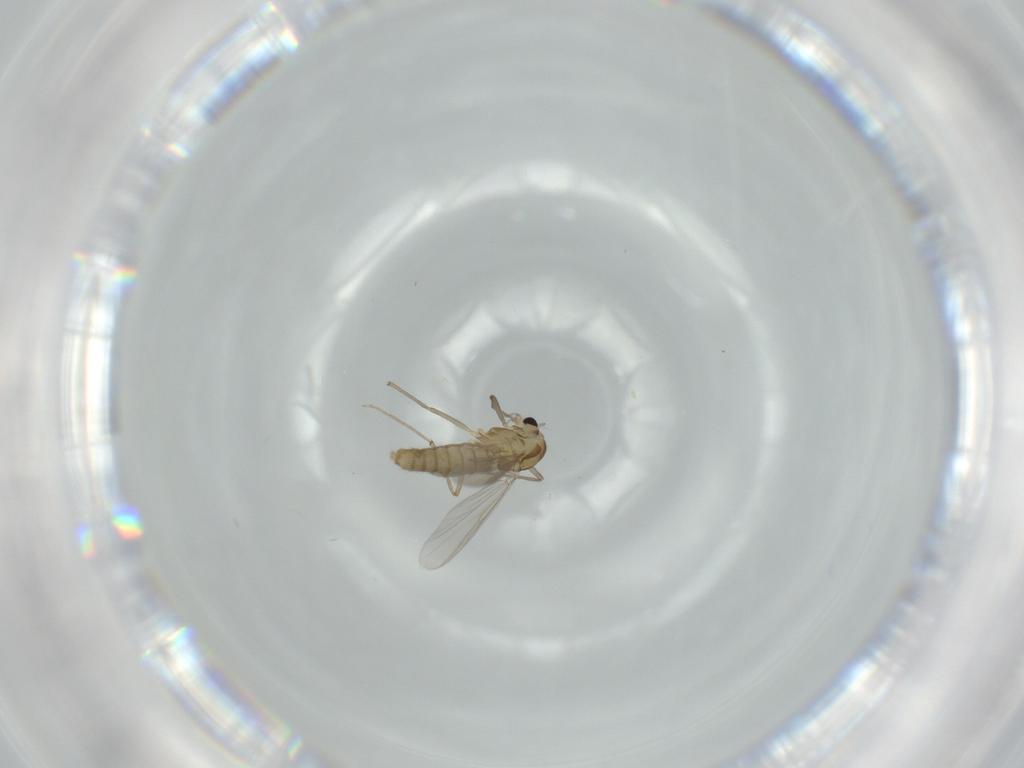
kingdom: Animalia
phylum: Arthropoda
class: Insecta
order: Diptera
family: Chironomidae
